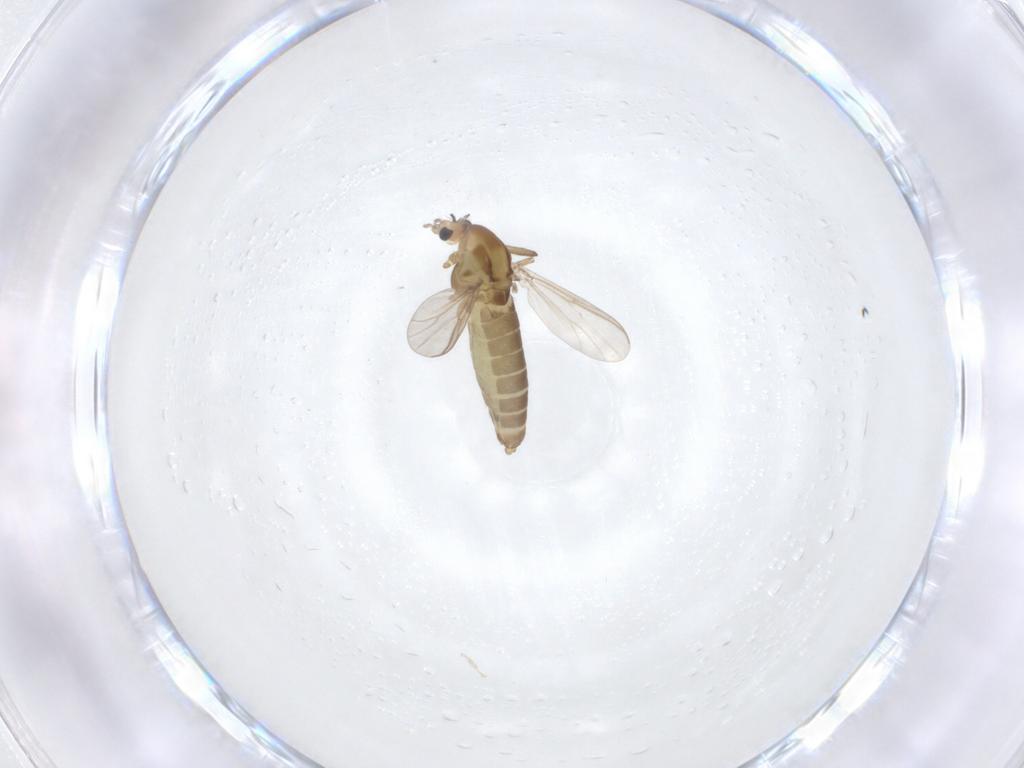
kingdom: Animalia
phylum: Arthropoda
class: Insecta
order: Diptera
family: Chironomidae
